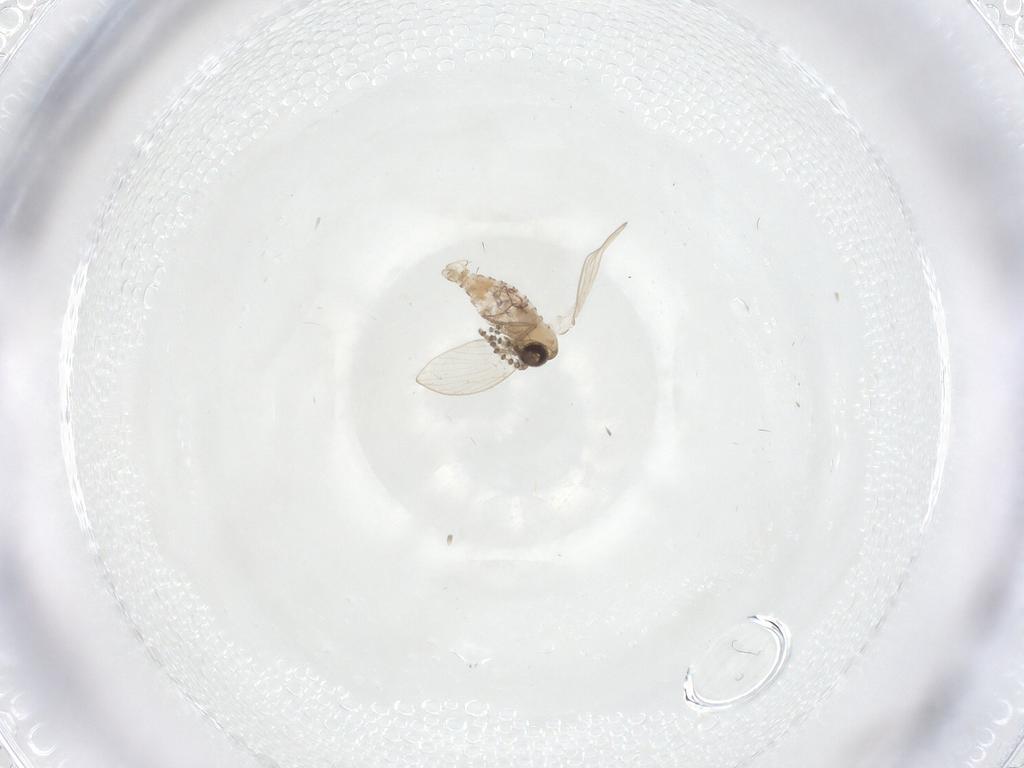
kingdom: Animalia
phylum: Arthropoda
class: Insecta
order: Diptera
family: Psychodidae
